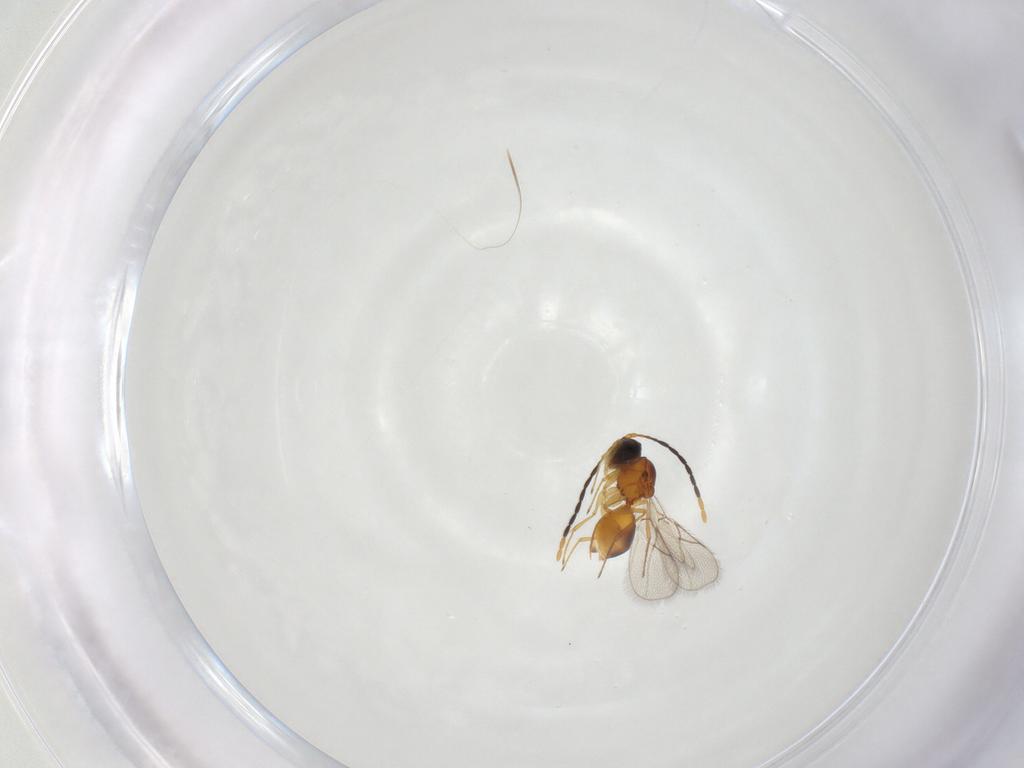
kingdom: Animalia
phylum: Arthropoda
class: Insecta
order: Hymenoptera
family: Figitidae
